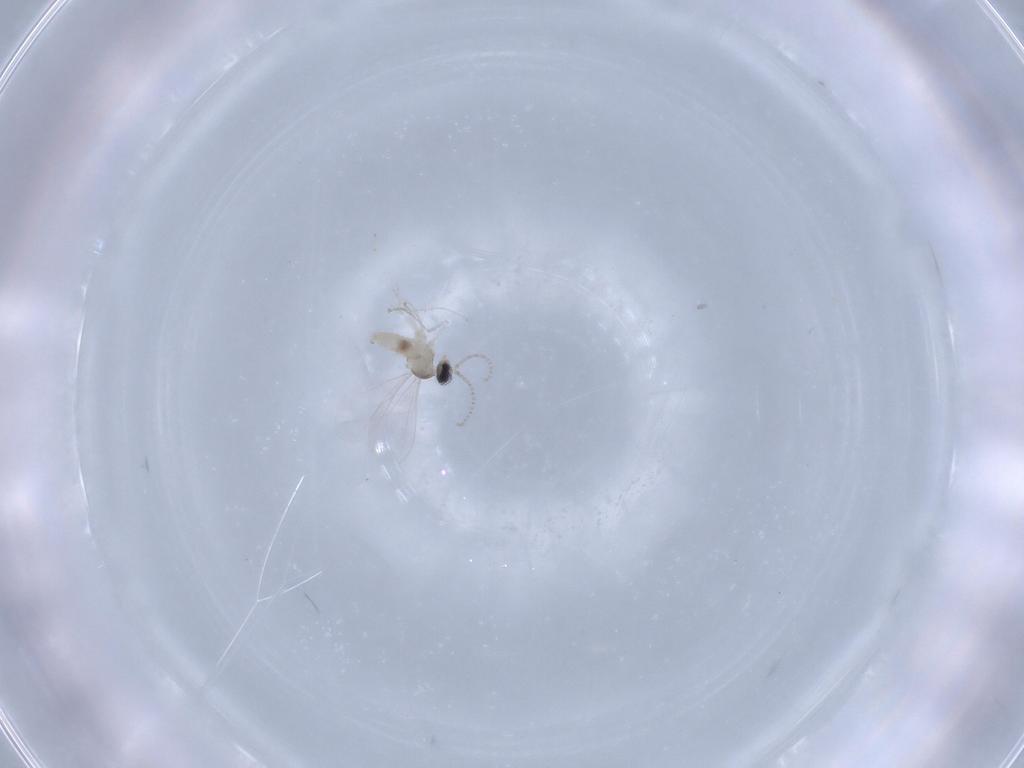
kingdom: Animalia
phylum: Arthropoda
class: Insecta
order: Diptera
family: Cecidomyiidae
